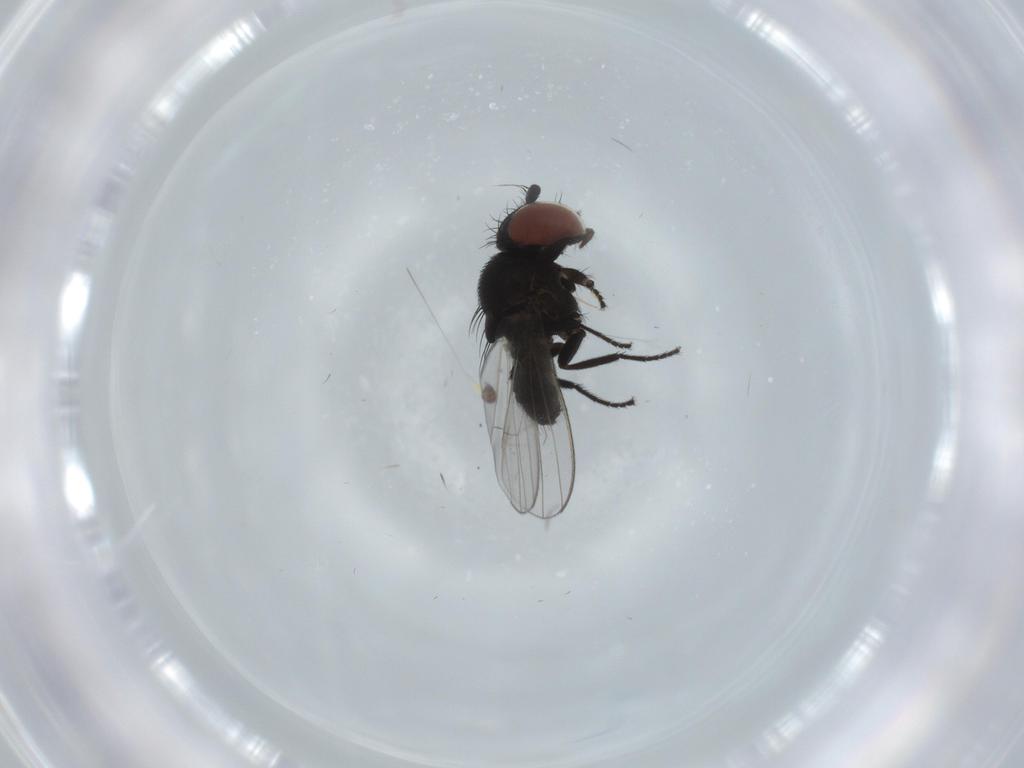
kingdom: Animalia
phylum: Arthropoda
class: Insecta
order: Diptera
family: Milichiidae
